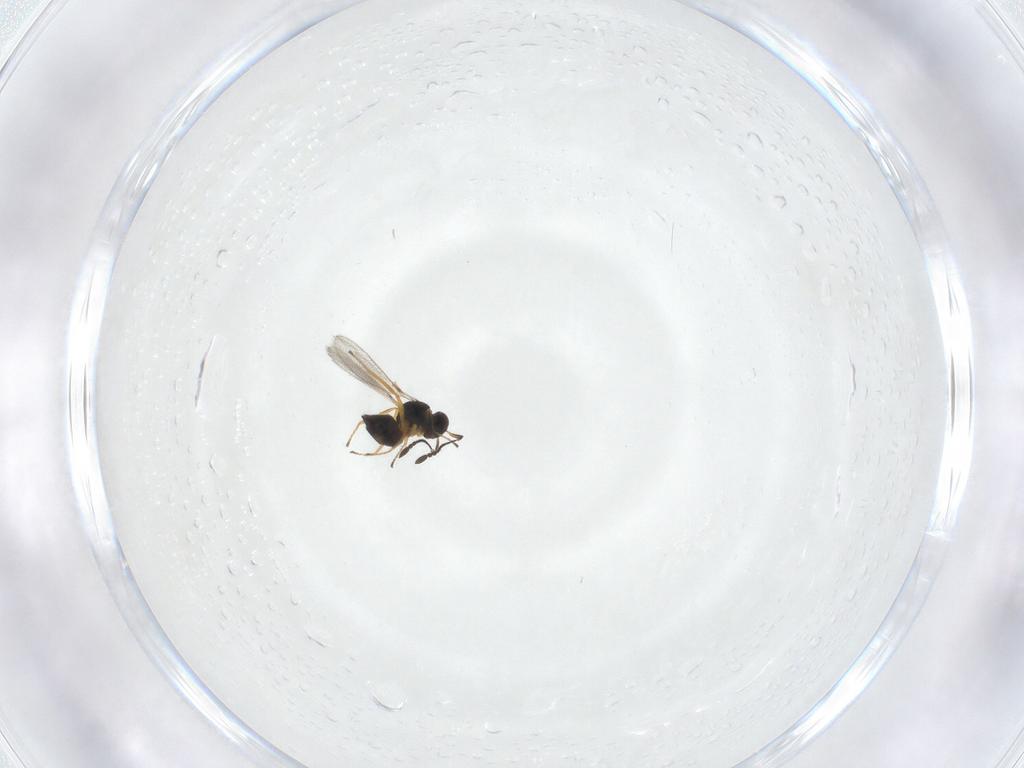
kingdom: Animalia
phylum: Arthropoda
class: Insecta
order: Hymenoptera
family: Mymaridae
